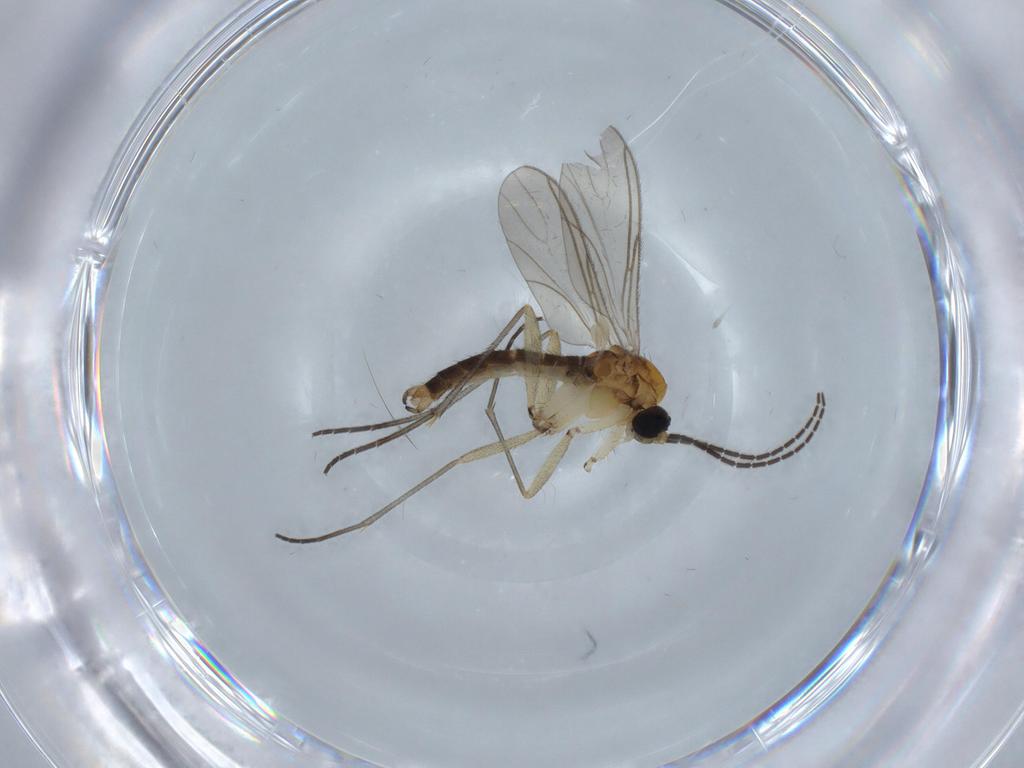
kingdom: Animalia
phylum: Arthropoda
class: Insecta
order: Diptera
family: Sciaridae
